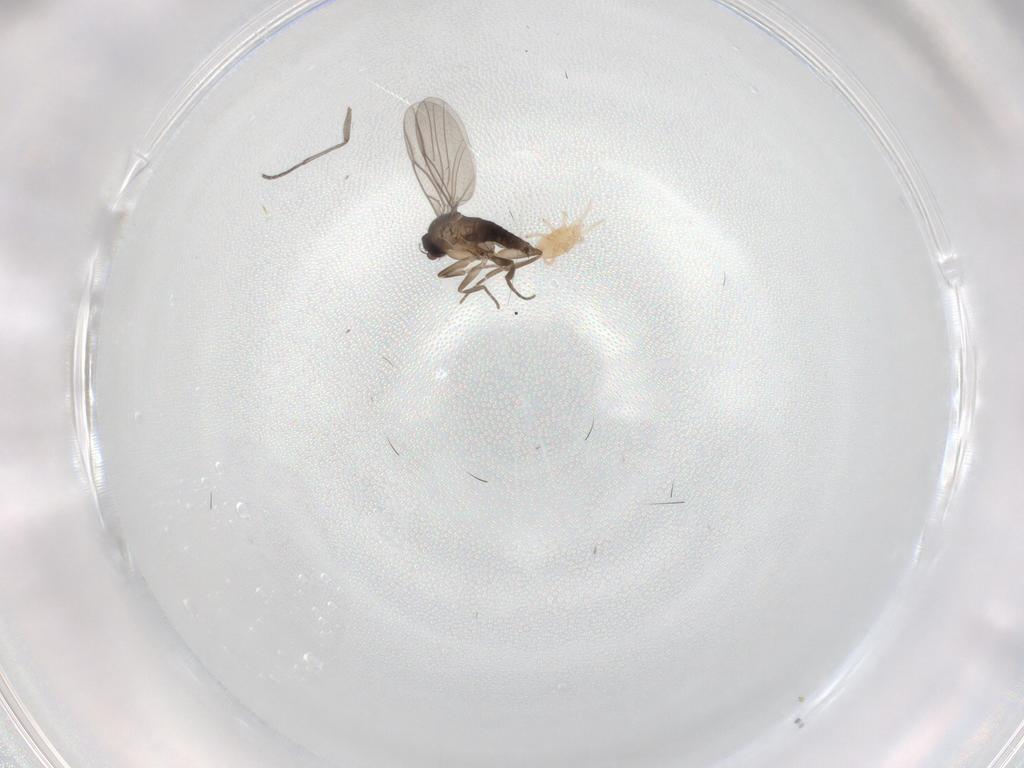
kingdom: Animalia
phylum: Arthropoda
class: Insecta
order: Diptera
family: Sciaridae
